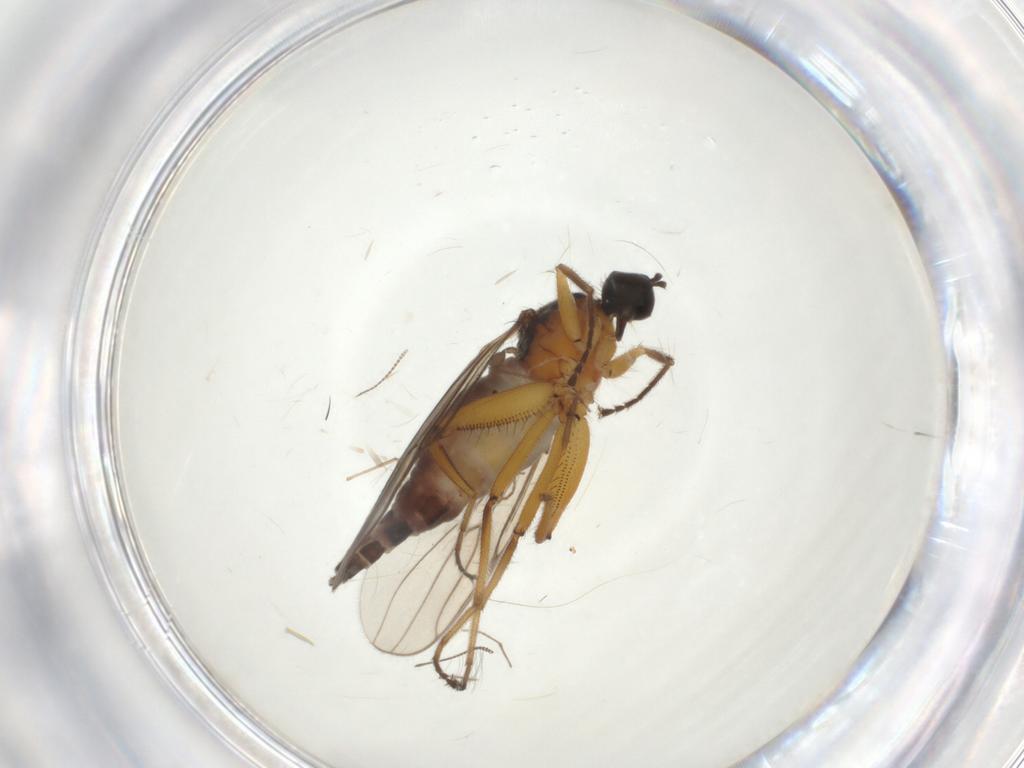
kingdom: Animalia
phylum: Arthropoda
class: Insecta
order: Diptera
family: Hybotidae
